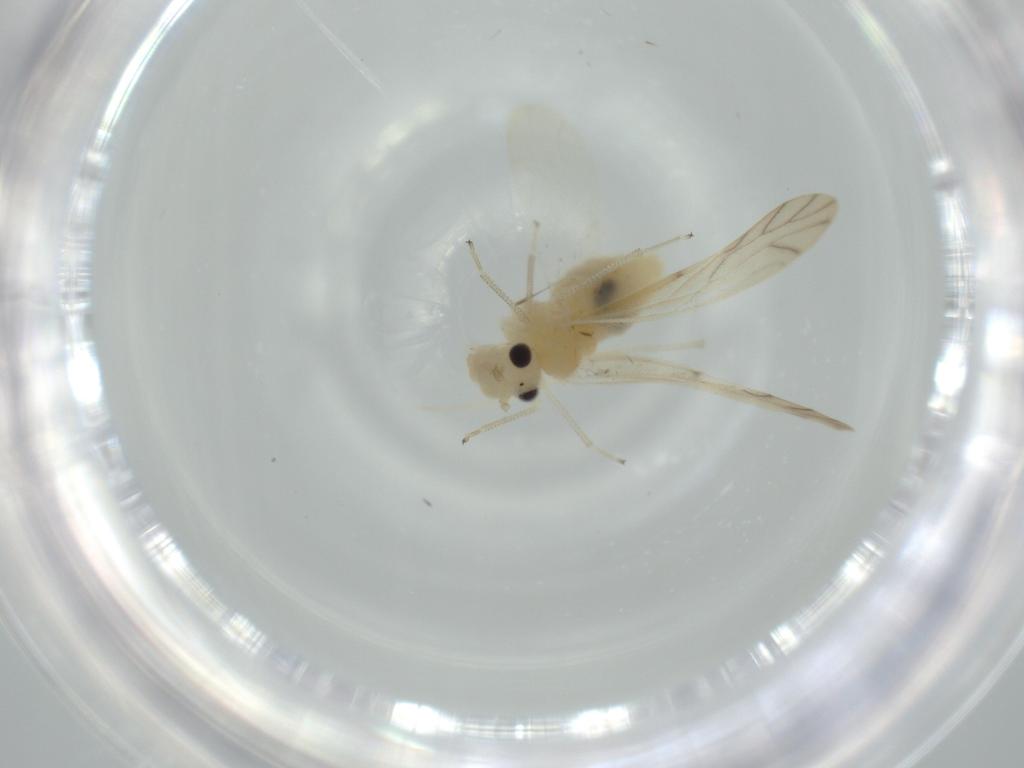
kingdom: Animalia
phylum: Arthropoda
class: Insecta
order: Psocodea
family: Caeciliusidae
